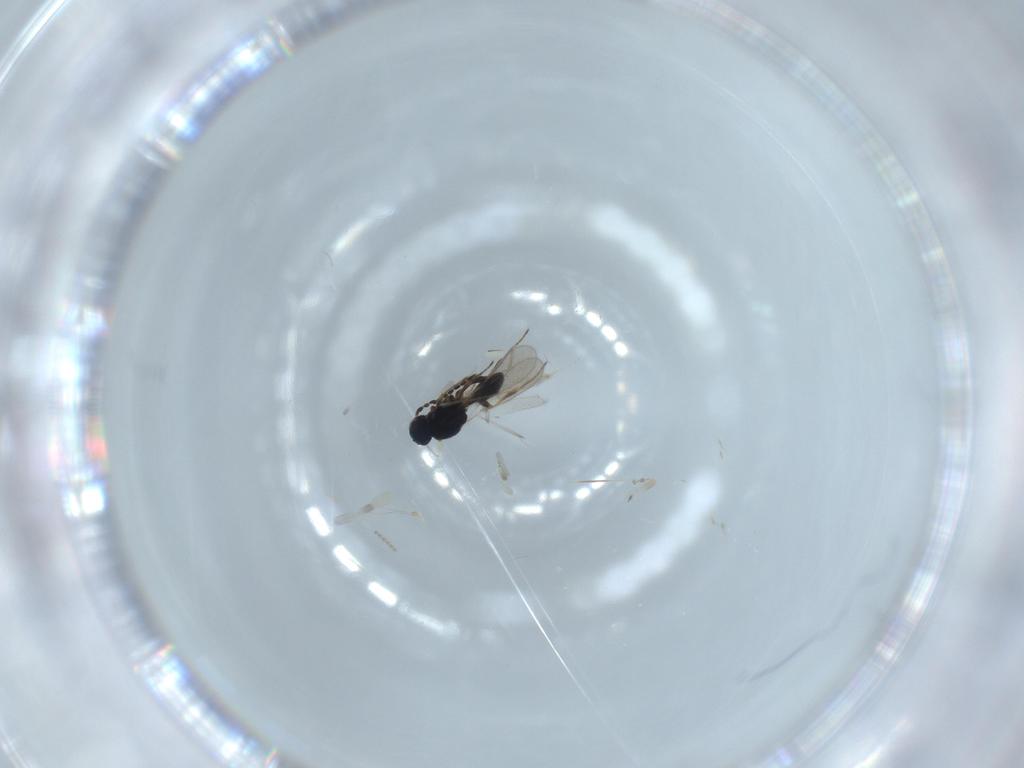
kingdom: Animalia
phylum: Arthropoda
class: Insecta
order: Hymenoptera
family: Platygastridae
